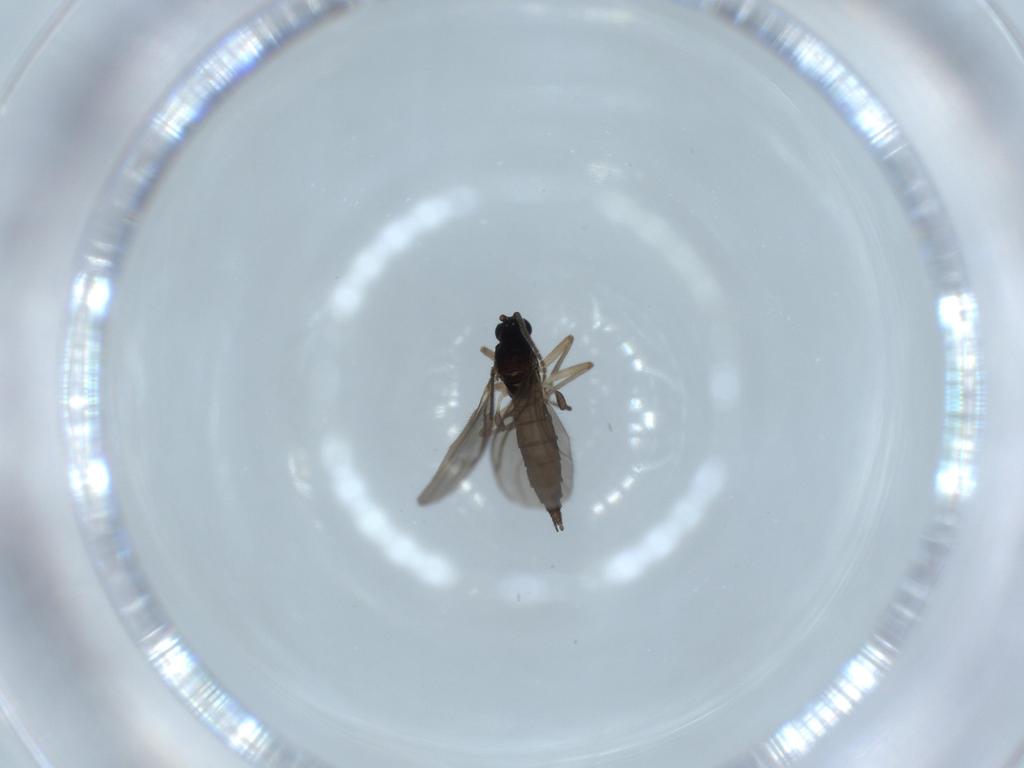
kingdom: Animalia
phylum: Arthropoda
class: Insecta
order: Diptera
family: Sciaridae
